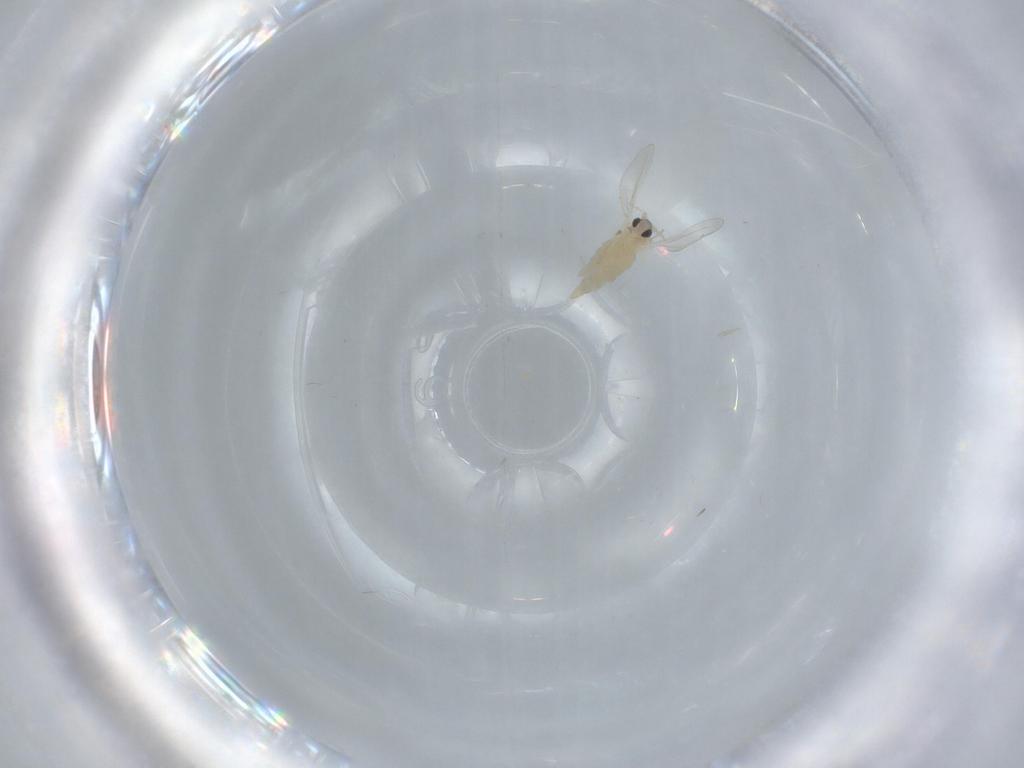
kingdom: Animalia
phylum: Arthropoda
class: Insecta
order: Diptera
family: Cecidomyiidae
